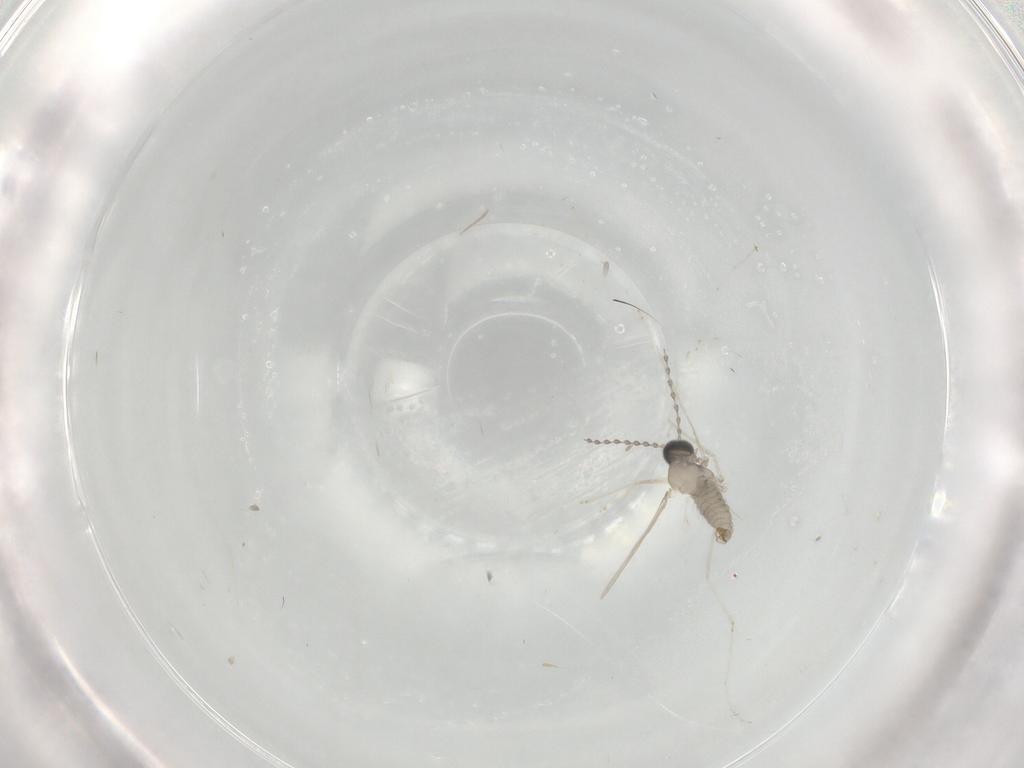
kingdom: Animalia
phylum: Arthropoda
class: Insecta
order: Diptera
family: Cecidomyiidae
